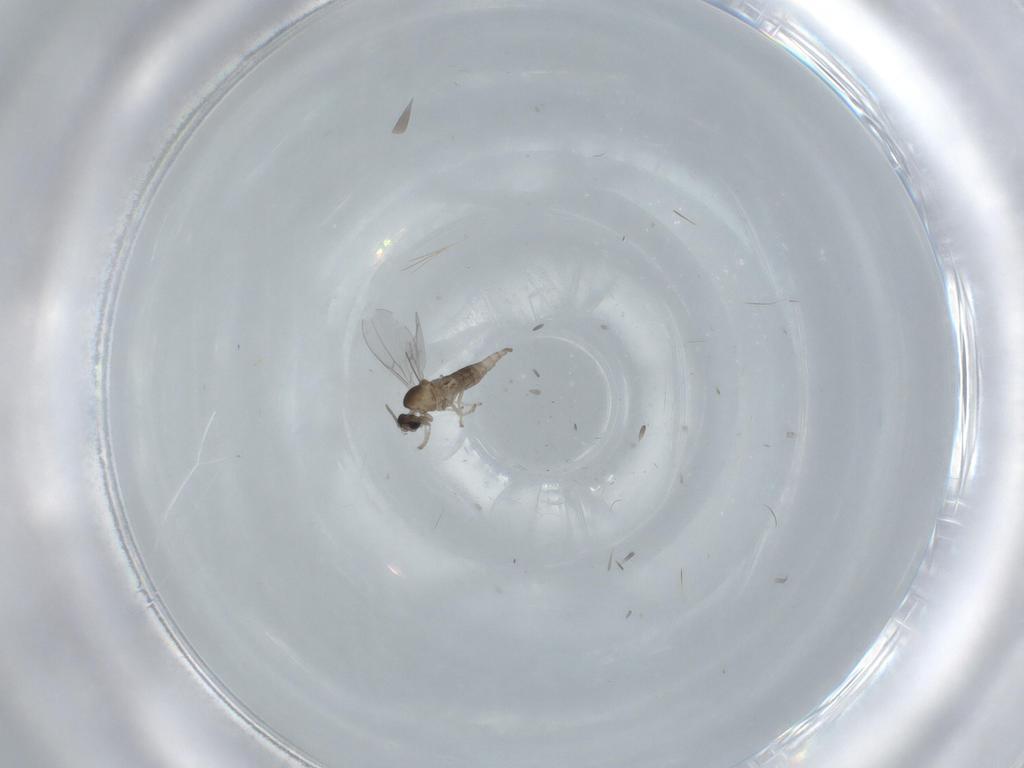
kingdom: Animalia
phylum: Arthropoda
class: Insecta
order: Diptera
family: Cecidomyiidae
